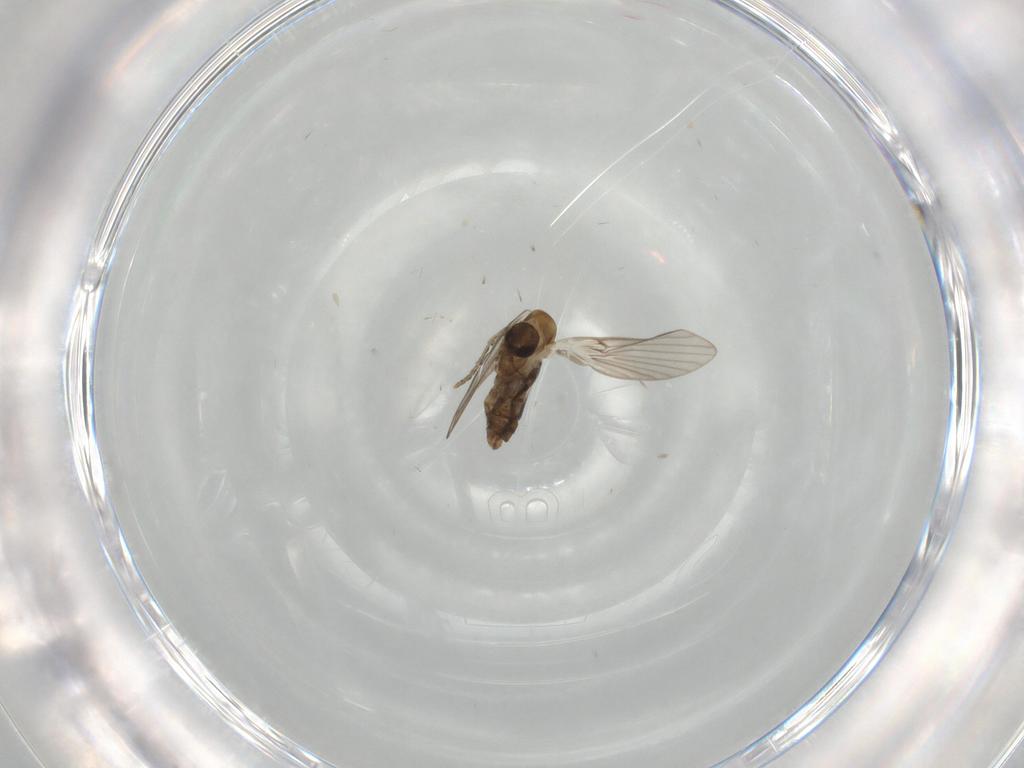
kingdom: Animalia
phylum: Arthropoda
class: Insecta
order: Diptera
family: Psychodidae
